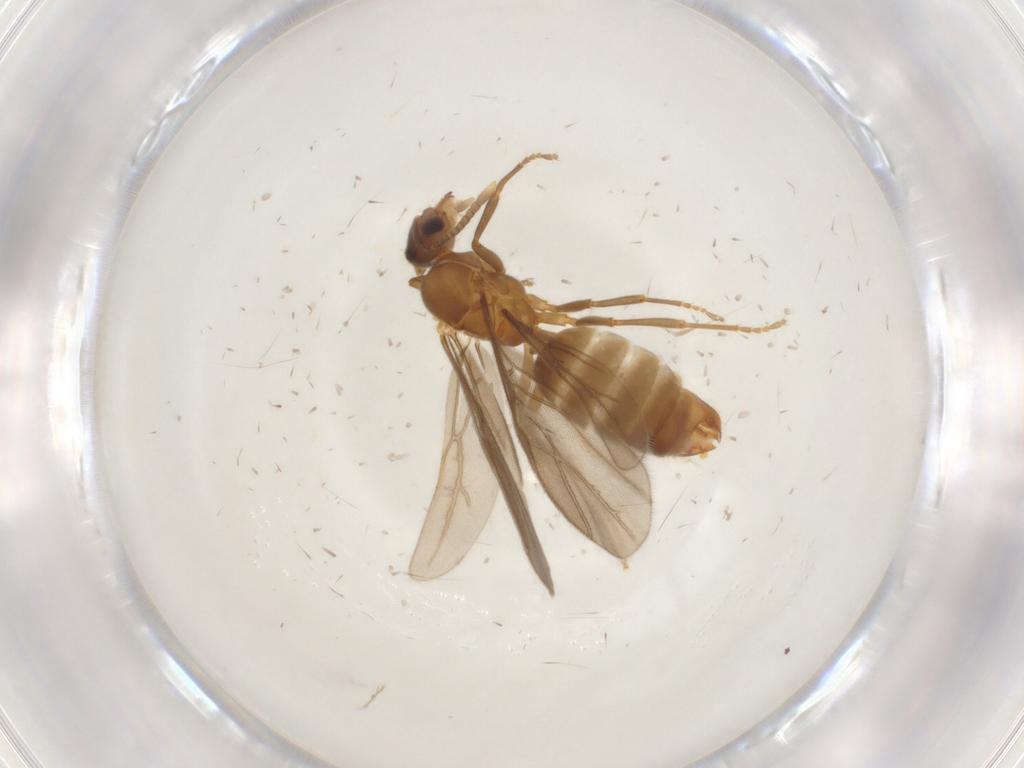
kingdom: Animalia
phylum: Arthropoda
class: Insecta
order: Hymenoptera
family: Formicidae
